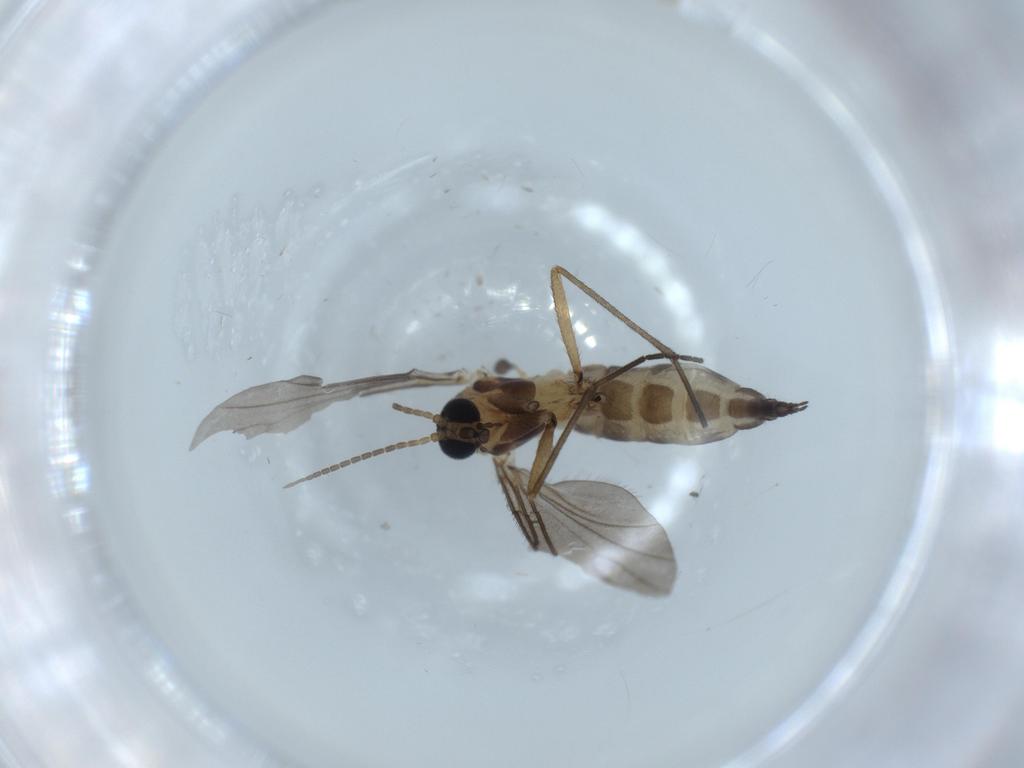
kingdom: Animalia
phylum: Arthropoda
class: Insecta
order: Diptera
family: Sciaridae
